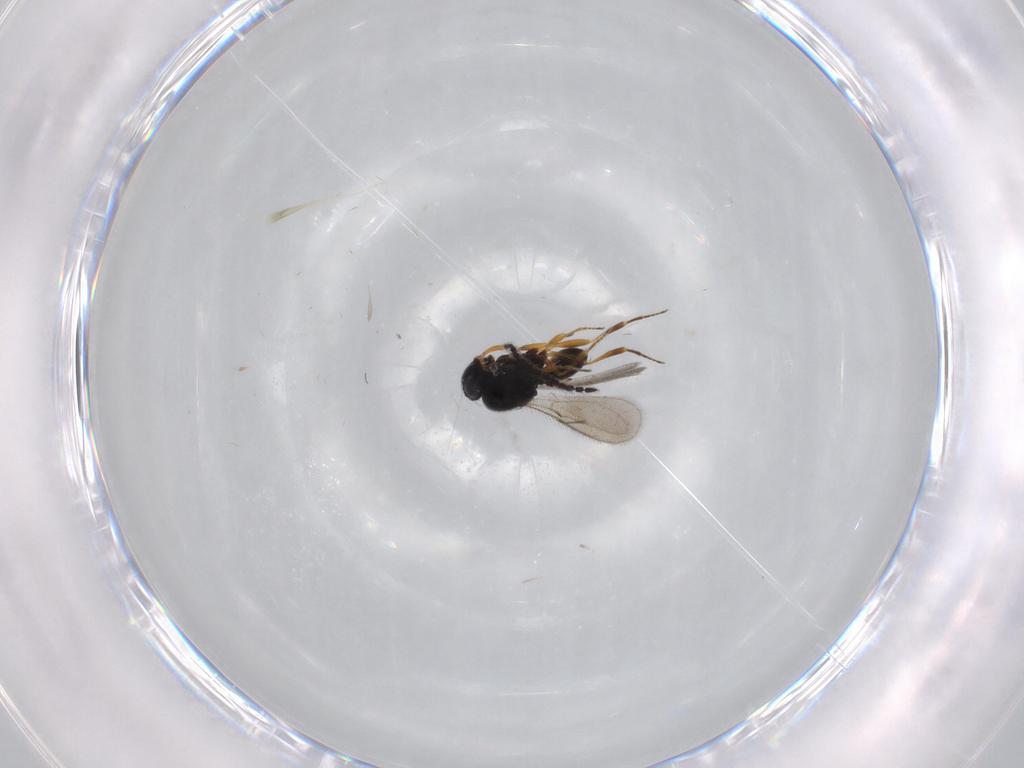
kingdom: Animalia
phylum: Arthropoda
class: Insecta
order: Hymenoptera
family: Scelionidae
